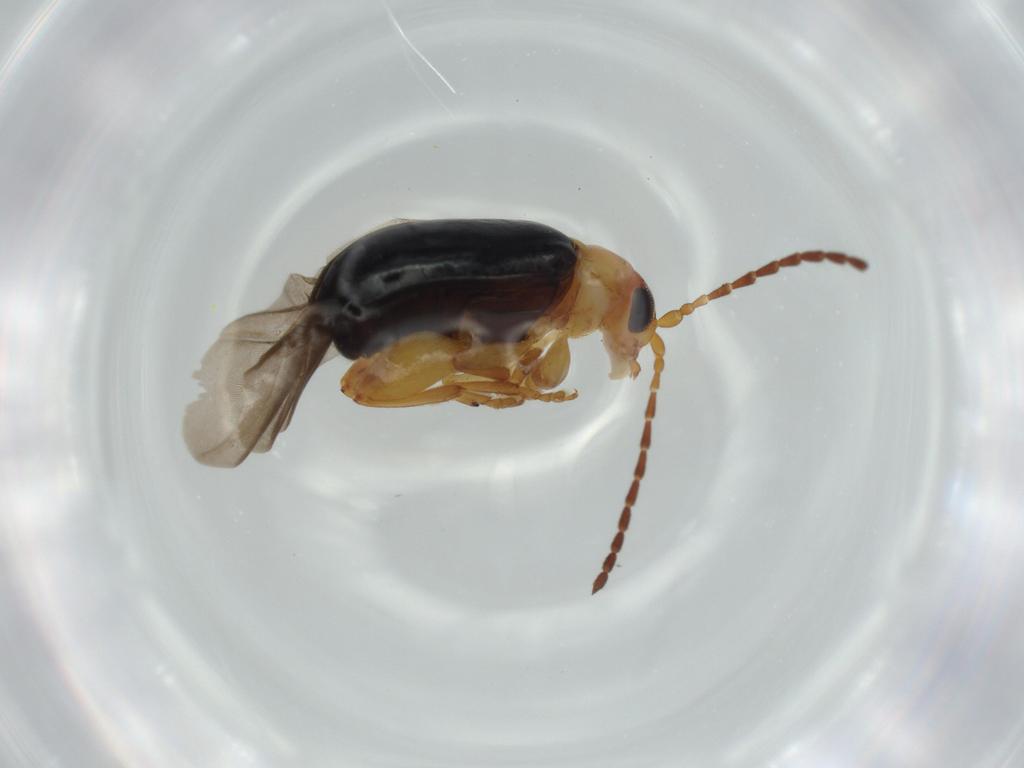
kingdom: Animalia
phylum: Arthropoda
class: Insecta
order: Coleoptera
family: Chrysomelidae
